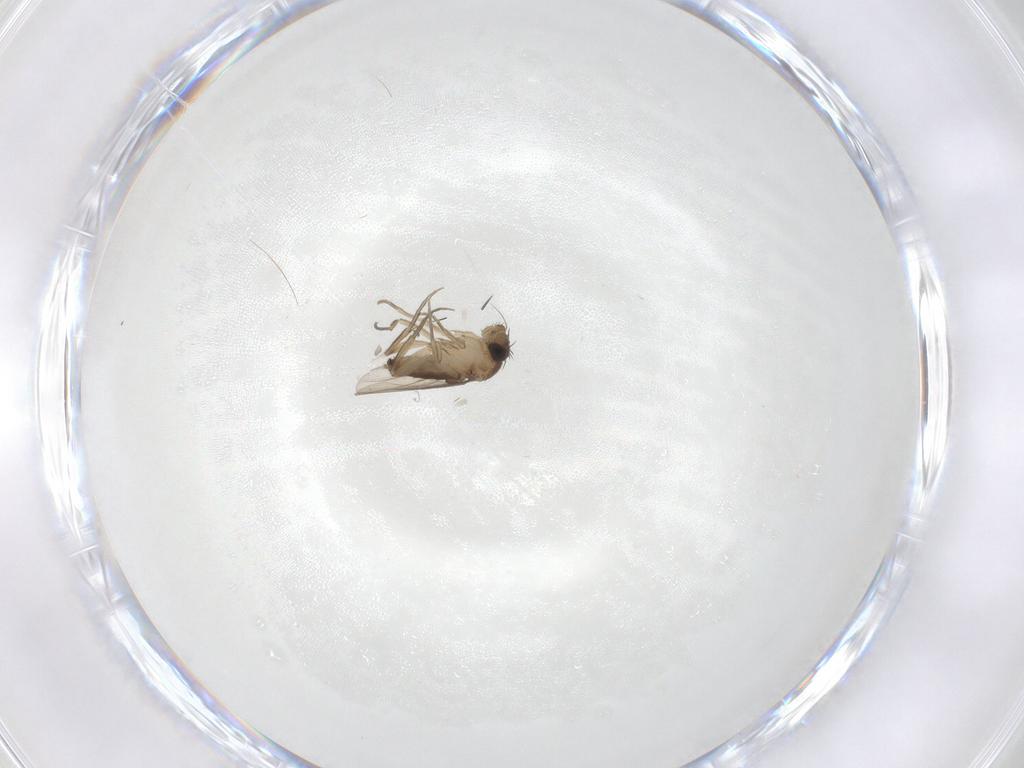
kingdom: Animalia
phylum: Arthropoda
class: Insecta
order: Diptera
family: Phoridae
